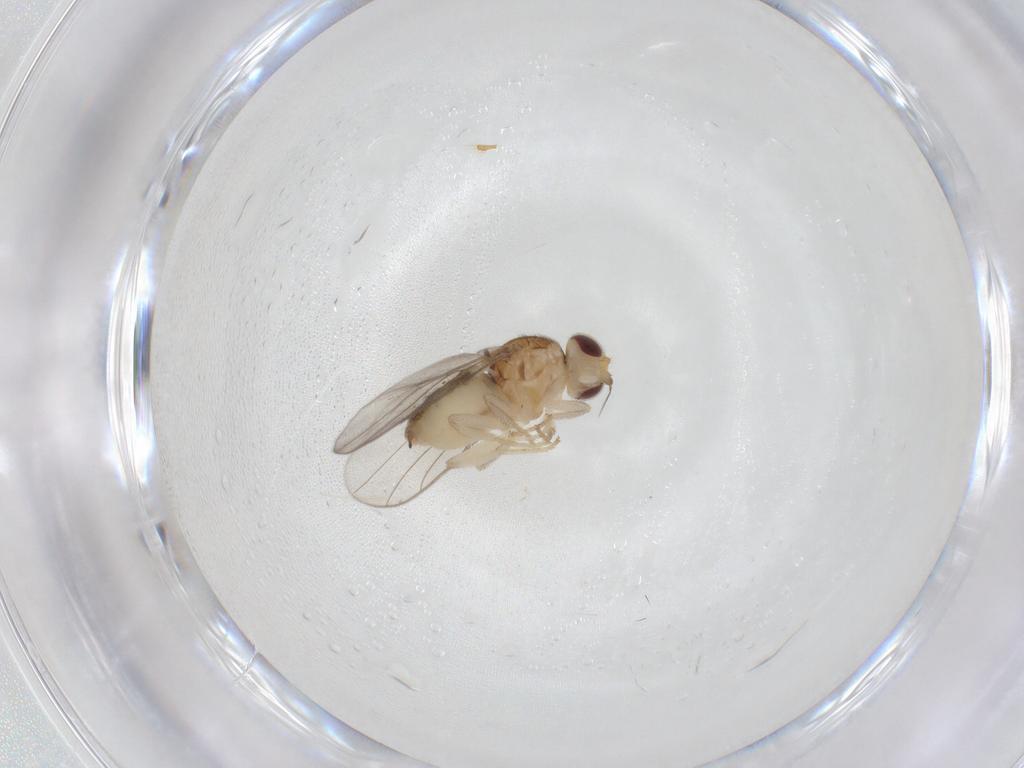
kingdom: Animalia
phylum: Arthropoda
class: Insecta
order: Diptera
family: Chloropidae
